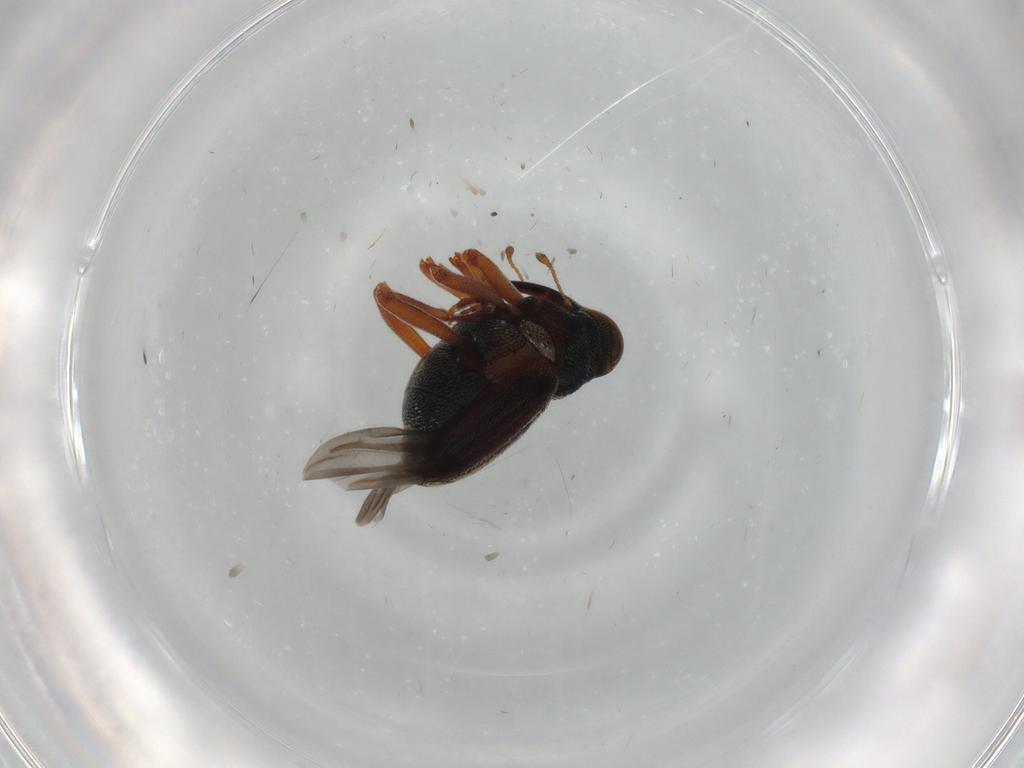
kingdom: Animalia
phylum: Arthropoda
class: Insecta
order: Coleoptera
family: Curculionidae
